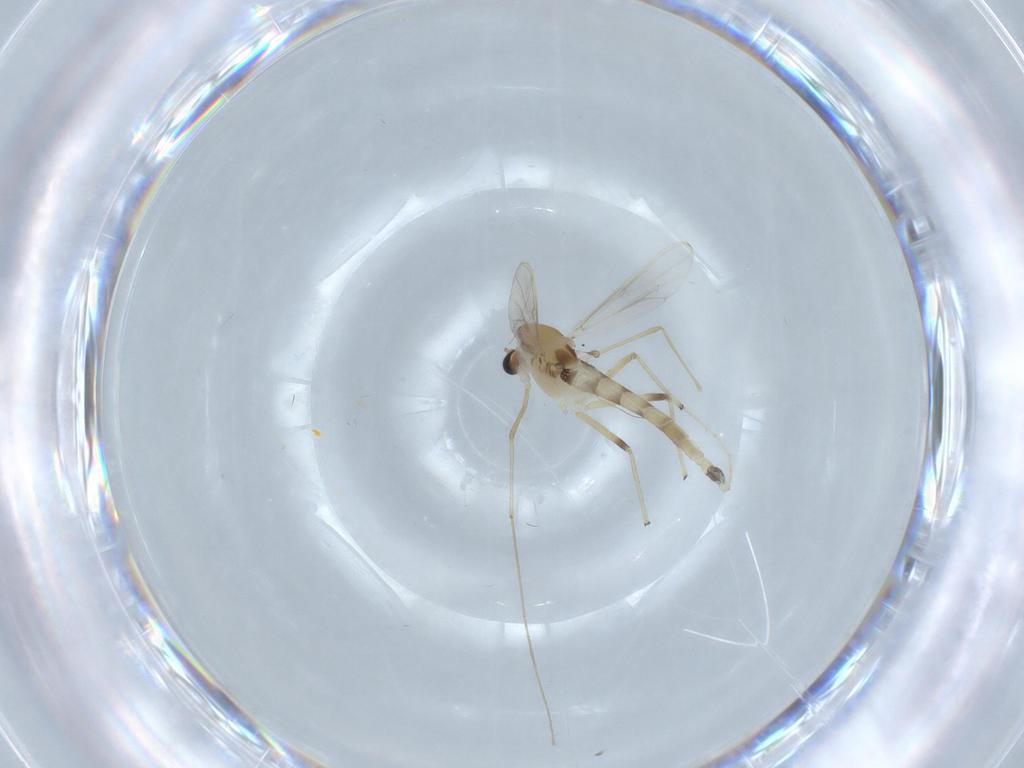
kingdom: Animalia
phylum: Arthropoda
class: Insecta
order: Diptera
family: Chironomidae
